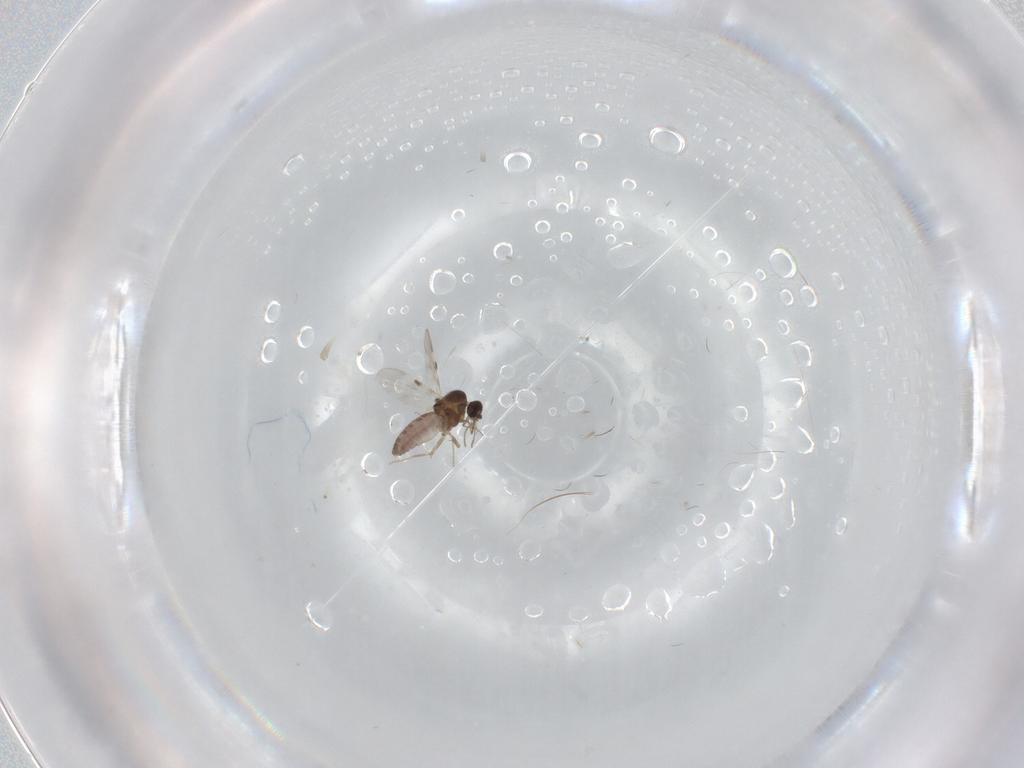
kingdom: Animalia
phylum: Arthropoda
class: Insecta
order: Diptera
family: Cecidomyiidae
